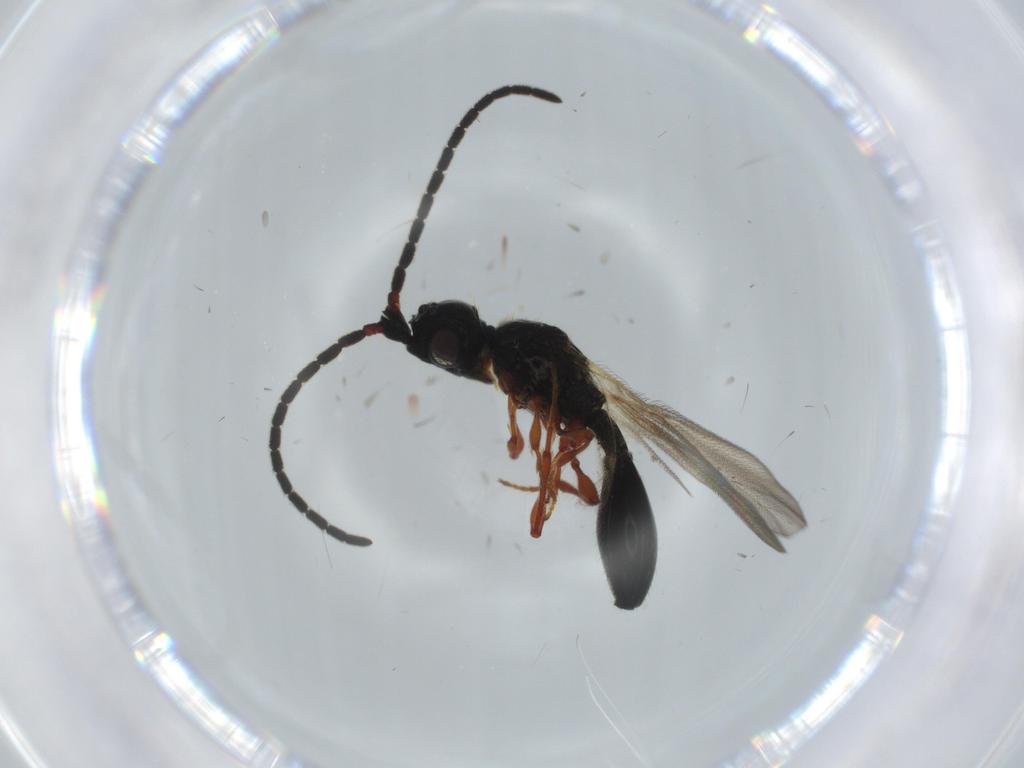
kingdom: Animalia
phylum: Arthropoda
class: Insecta
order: Hymenoptera
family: Diapriidae
